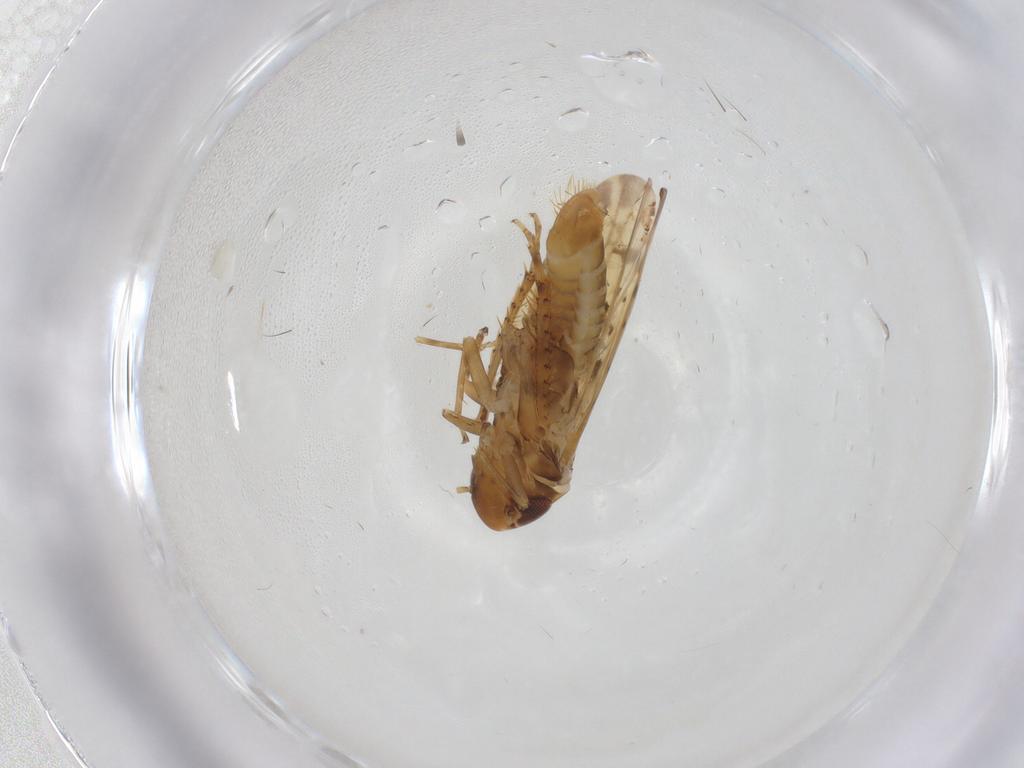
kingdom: Animalia
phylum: Arthropoda
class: Insecta
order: Hemiptera
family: Cicadellidae
